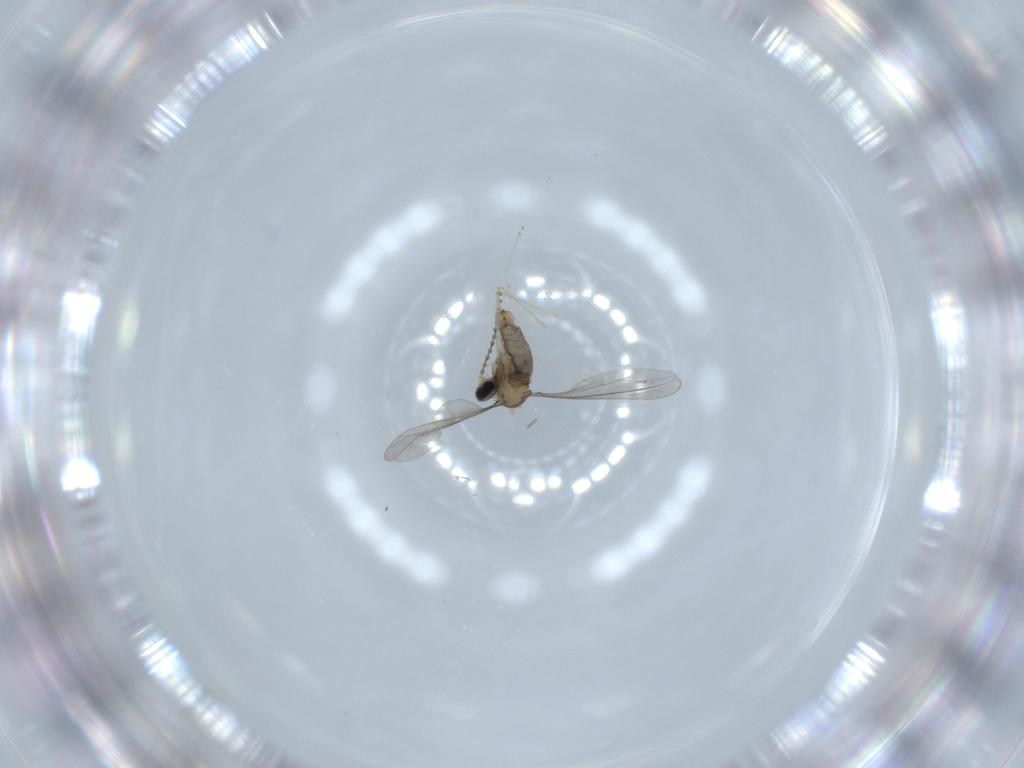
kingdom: Animalia
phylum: Arthropoda
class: Insecta
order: Diptera
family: Cecidomyiidae
